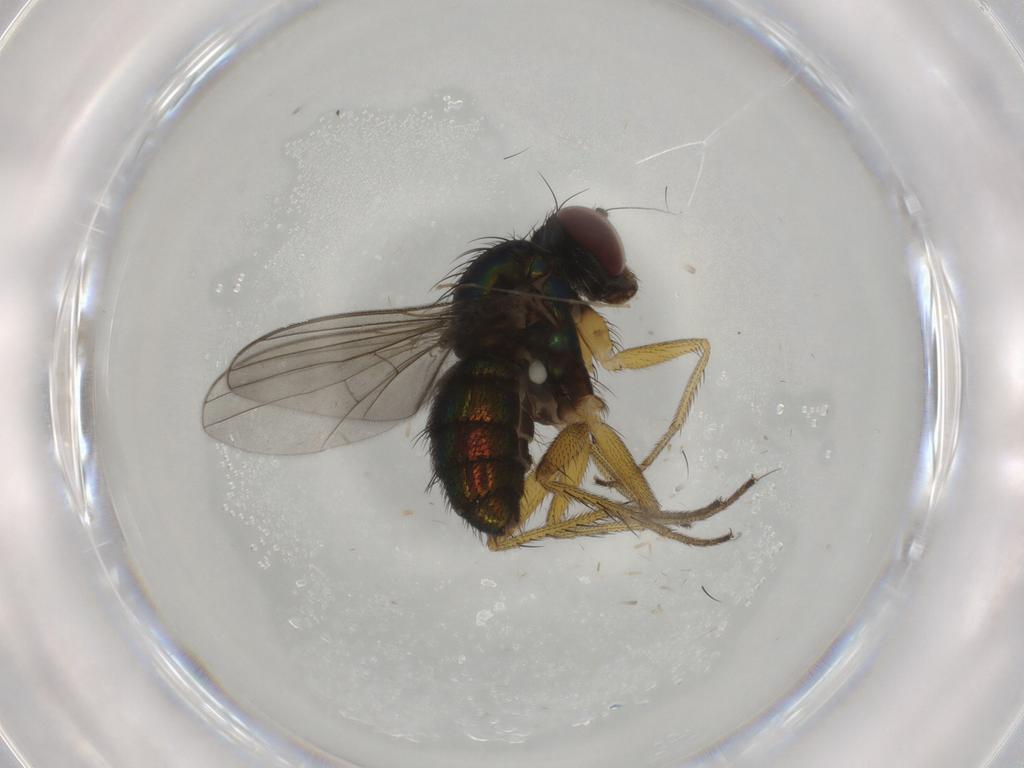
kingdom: Animalia
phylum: Arthropoda
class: Insecta
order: Diptera
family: Dolichopodidae
